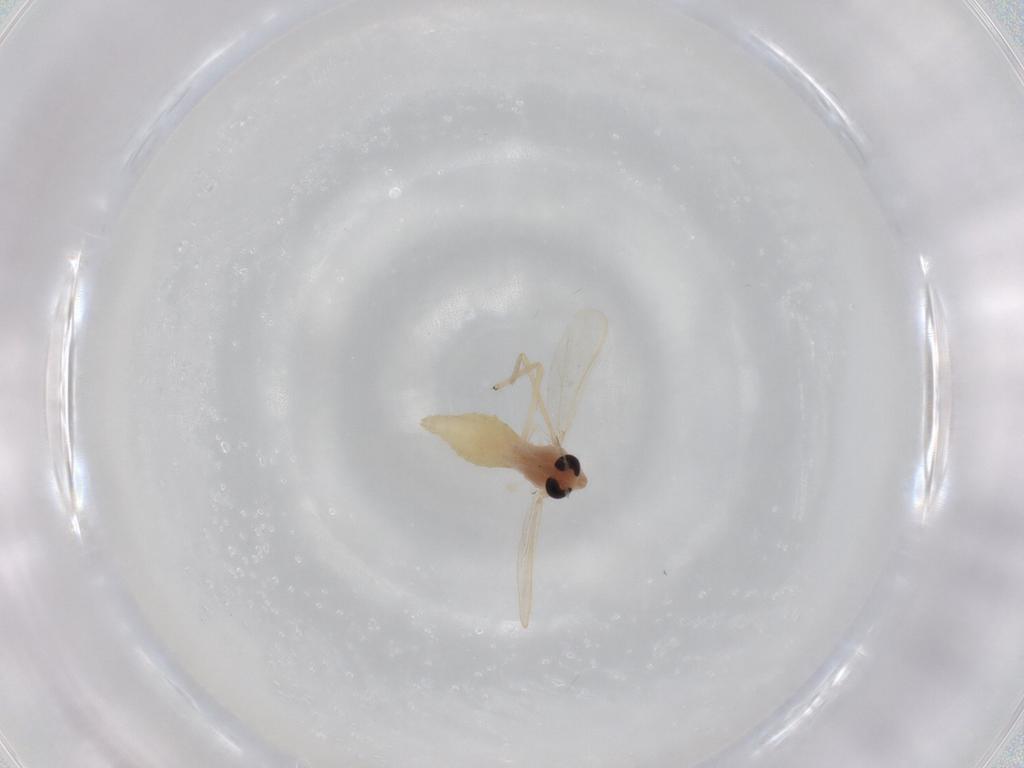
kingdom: Animalia
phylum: Arthropoda
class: Insecta
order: Diptera
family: Chironomidae
